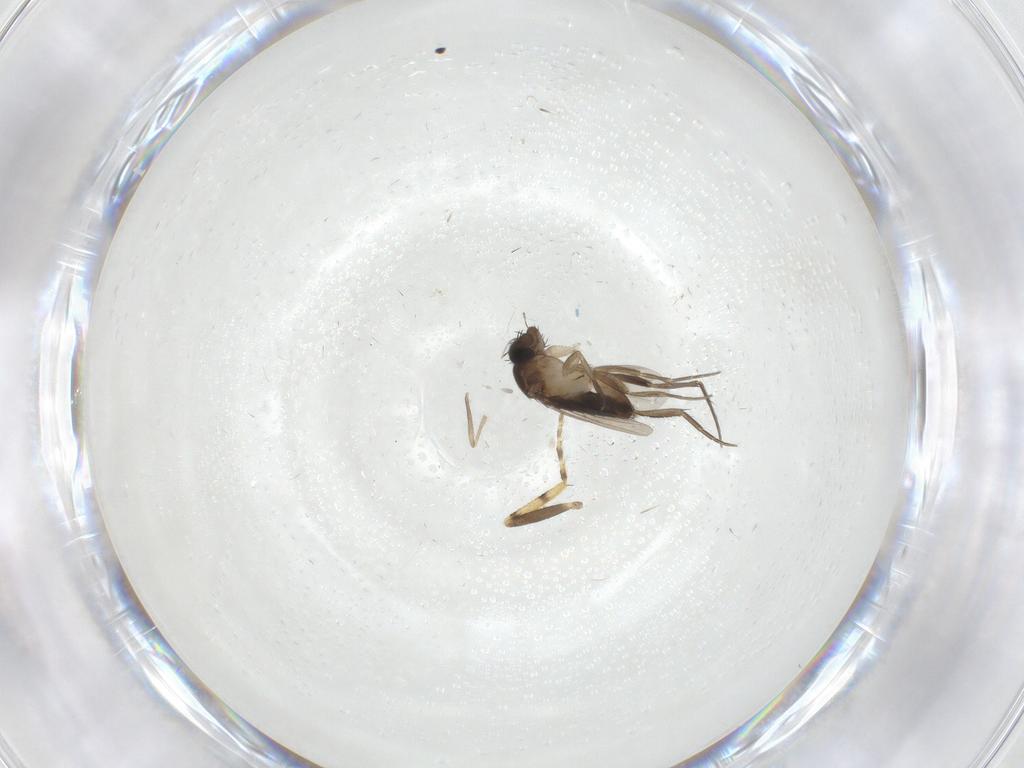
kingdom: Animalia
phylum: Arthropoda
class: Insecta
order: Diptera
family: Phoridae
